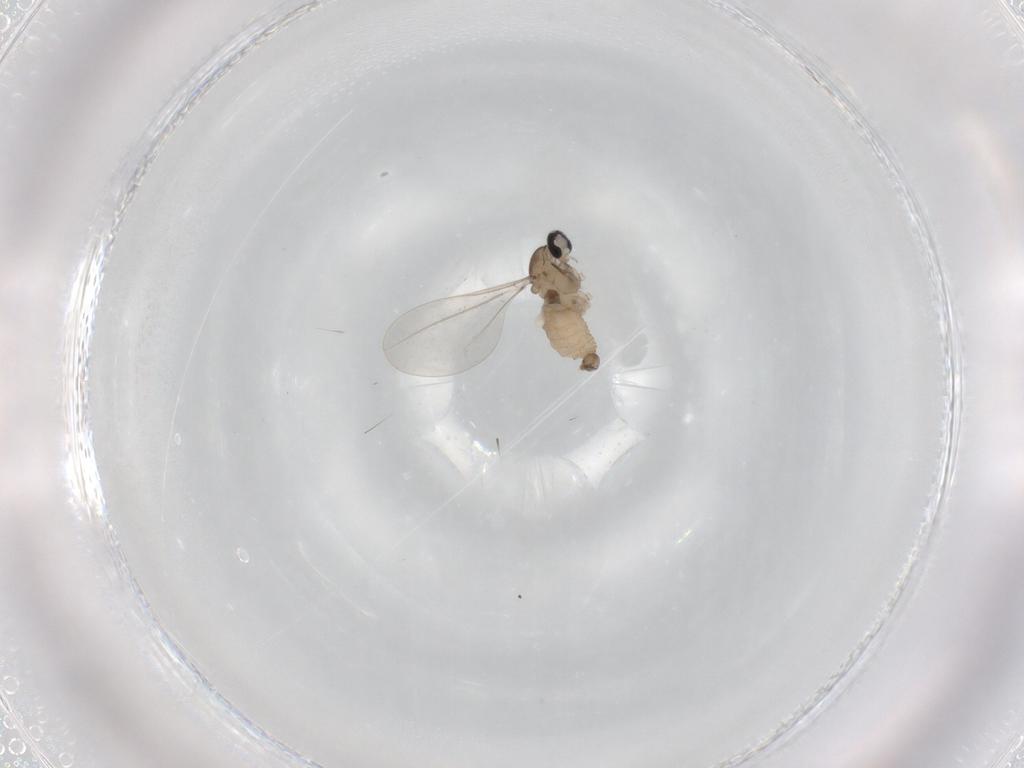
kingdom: Animalia
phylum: Arthropoda
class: Insecta
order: Diptera
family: Cecidomyiidae
